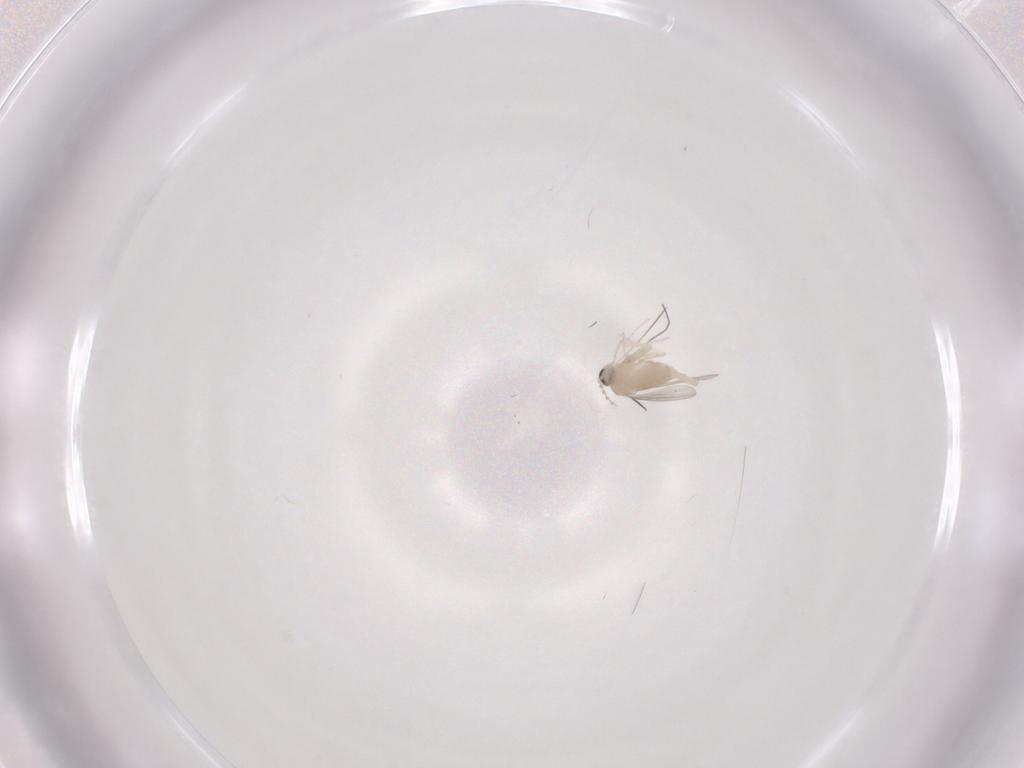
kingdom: Animalia
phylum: Arthropoda
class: Insecta
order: Diptera
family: Cecidomyiidae
